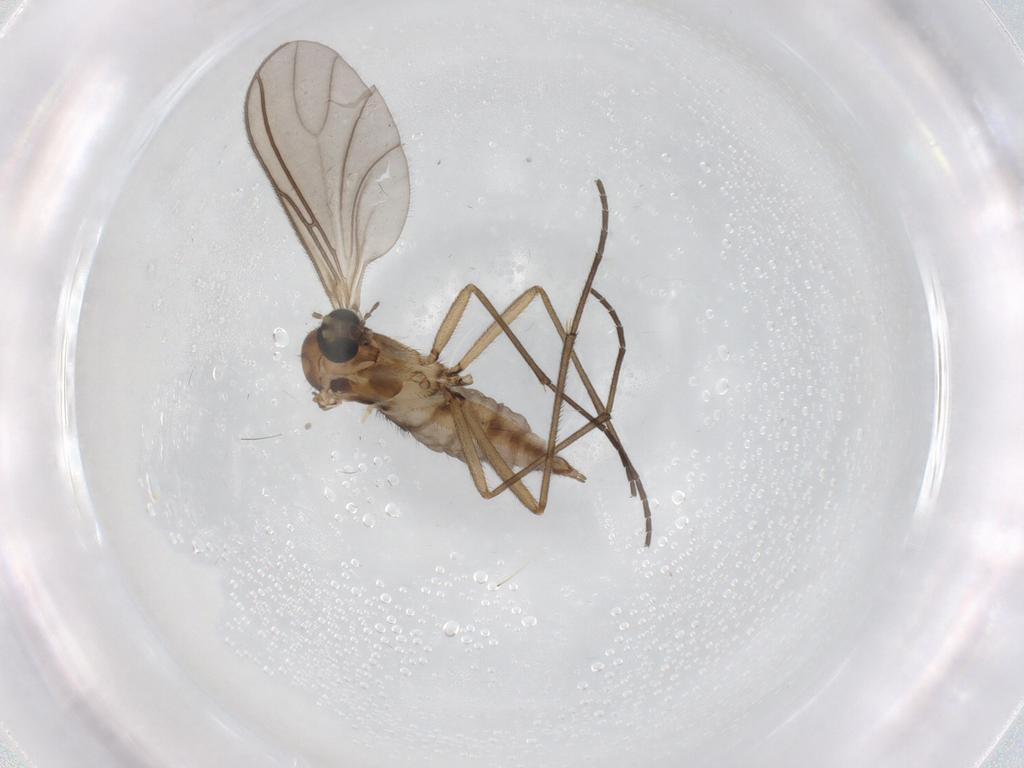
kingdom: Animalia
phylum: Arthropoda
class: Insecta
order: Diptera
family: Sciaridae
